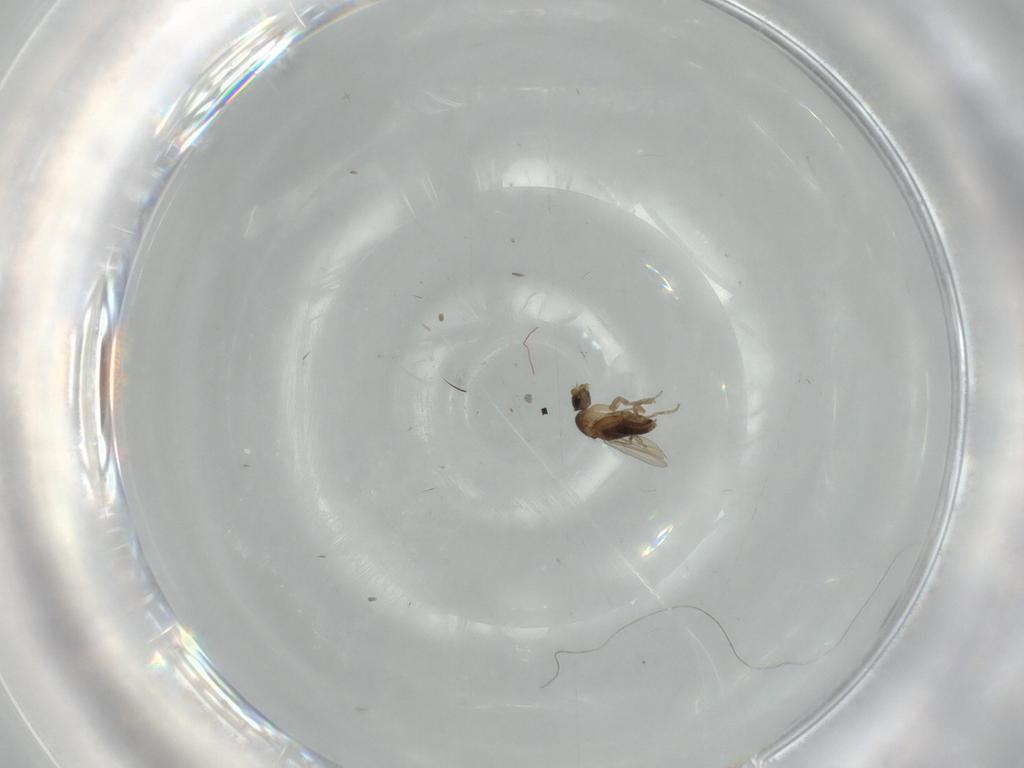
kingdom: Animalia
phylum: Arthropoda
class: Insecta
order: Diptera
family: Phoridae
